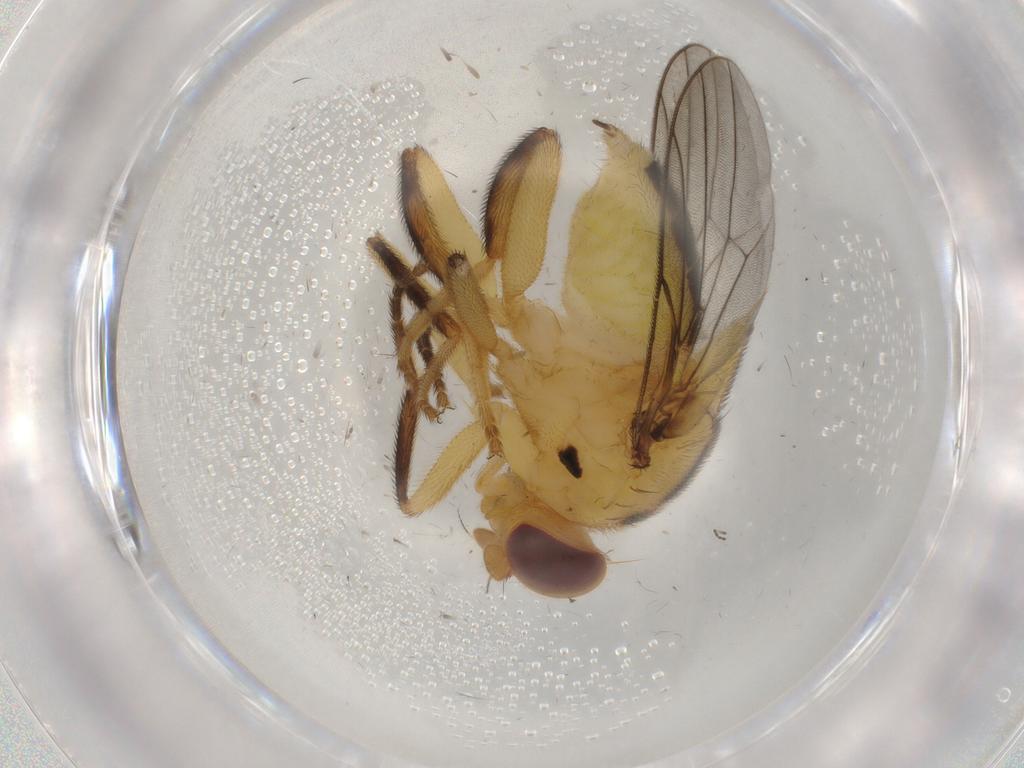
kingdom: Animalia
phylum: Arthropoda
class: Insecta
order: Diptera
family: Chloropidae
